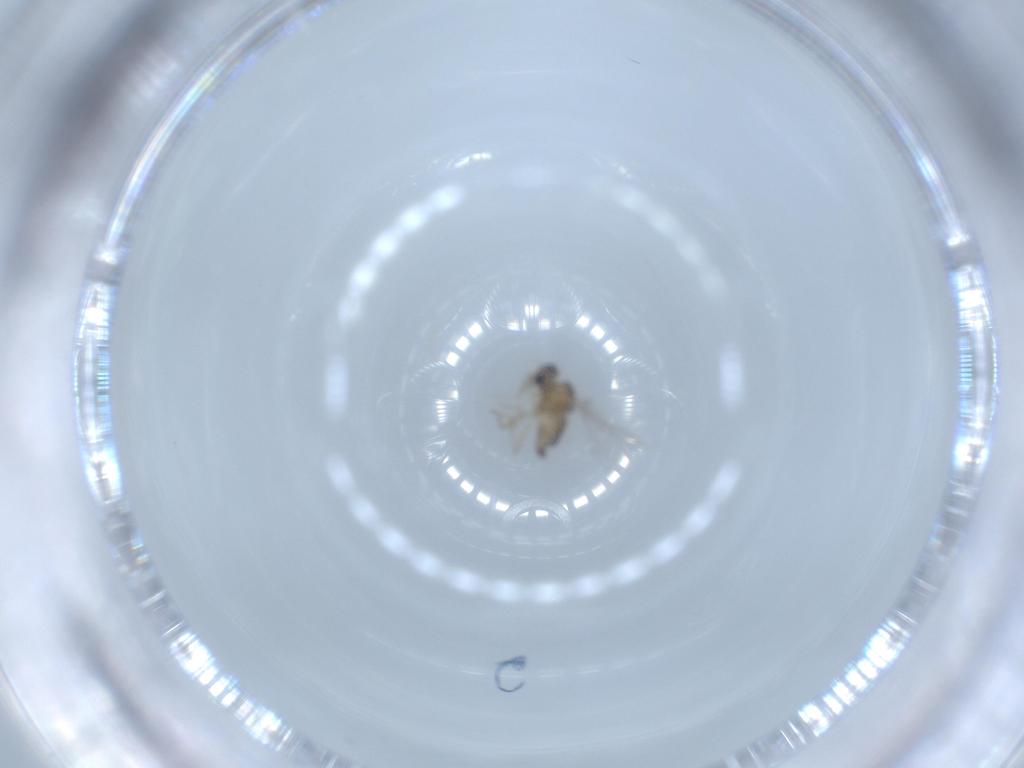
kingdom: Animalia
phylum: Arthropoda
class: Insecta
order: Diptera
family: Cecidomyiidae
